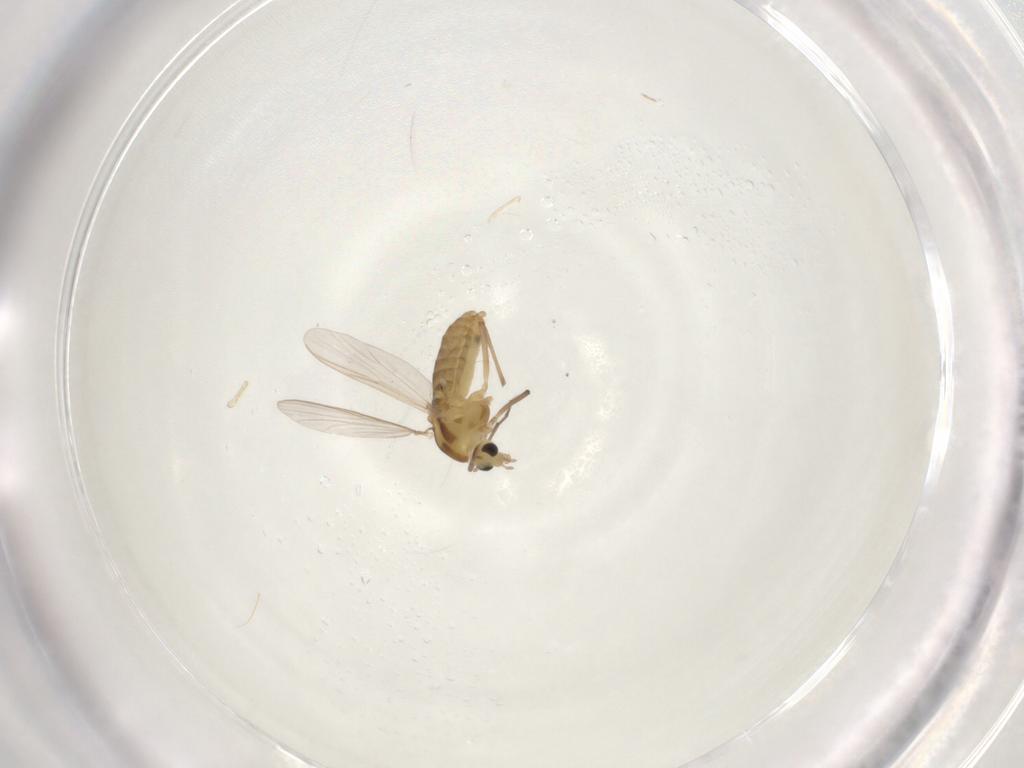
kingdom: Animalia
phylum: Arthropoda
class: Insecta
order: Diptera
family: Chironomidae
